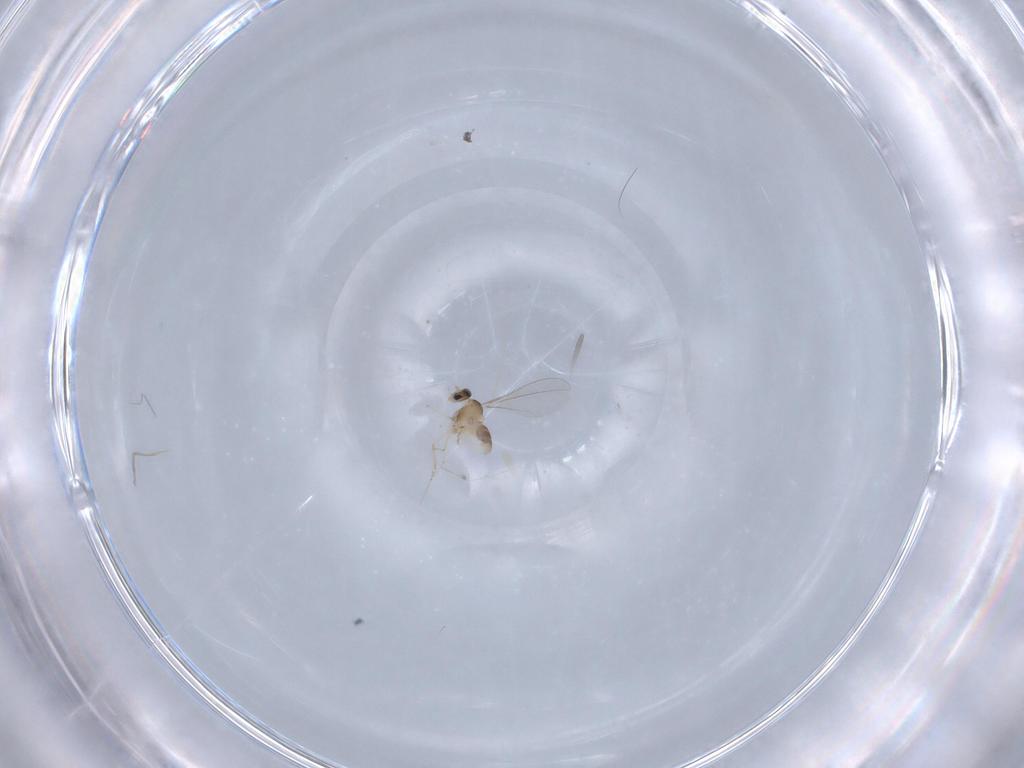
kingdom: Animalia
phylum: Arthropoda
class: Insecta
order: Diptera
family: Cecidomyiidae
